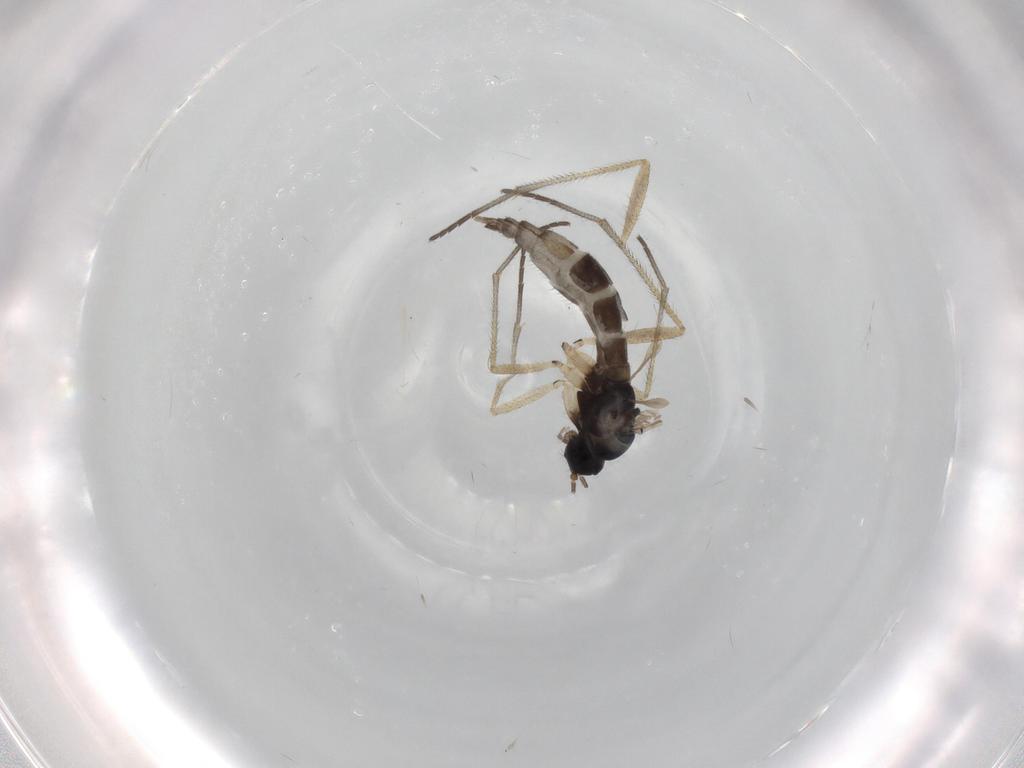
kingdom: Animalia
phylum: Arthropoda
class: Insecta
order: Diptera
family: Sciaridae
